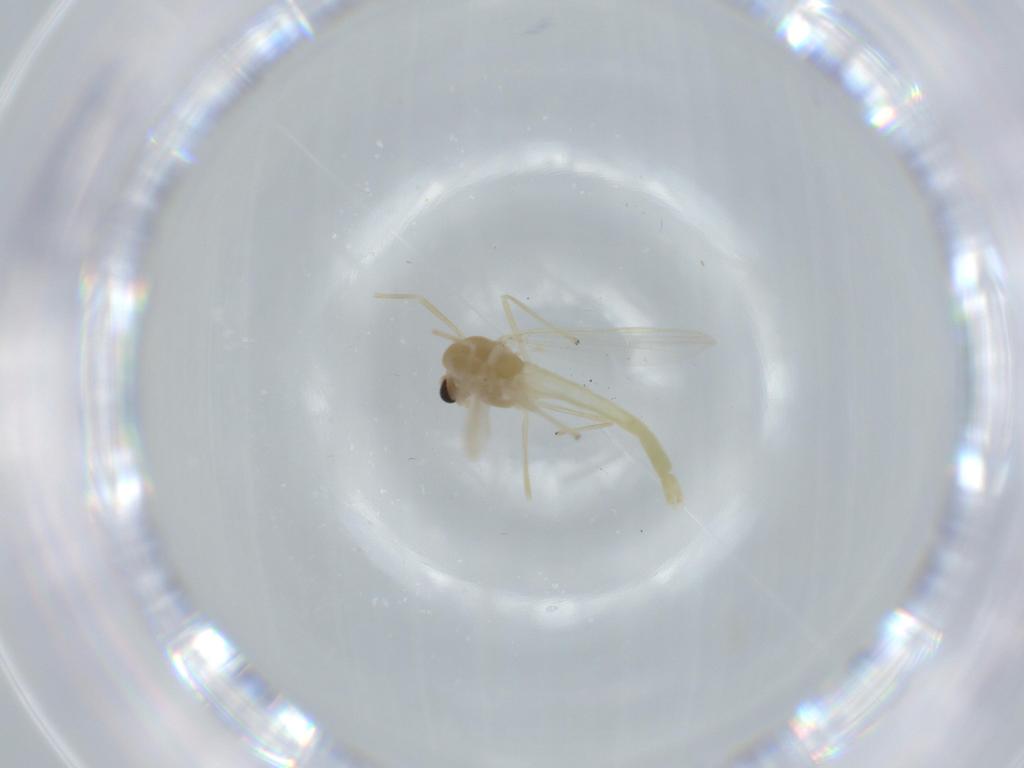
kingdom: Animalia
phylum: Arthropoda
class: Insecta
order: Diptera
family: Chironomidae
